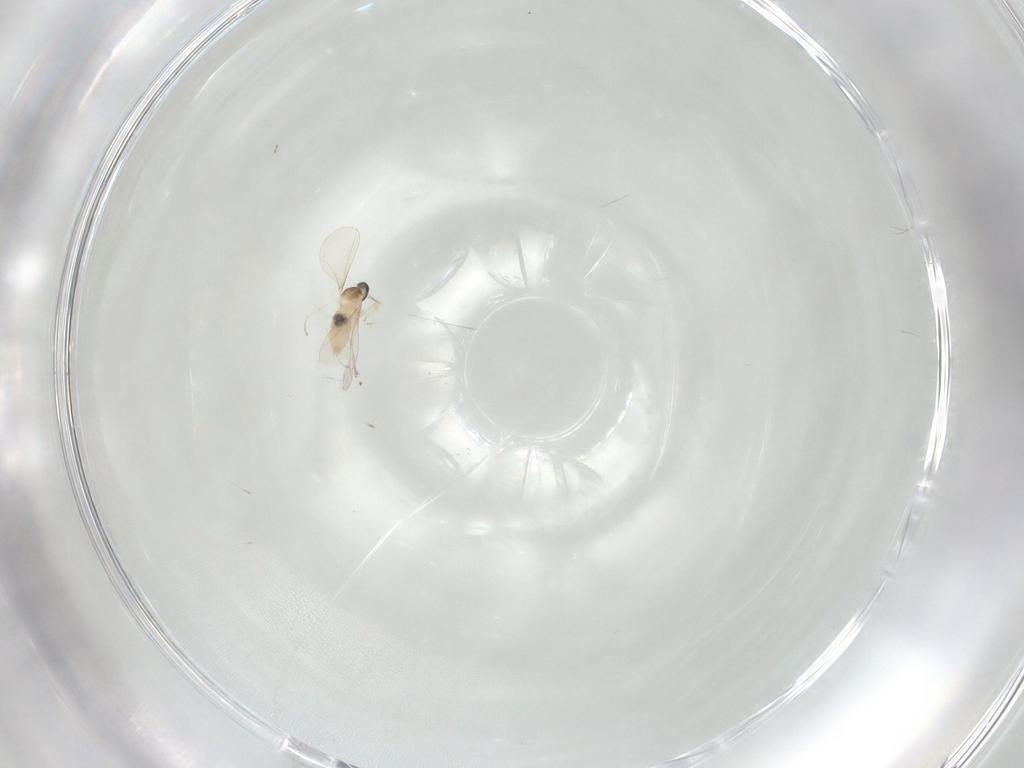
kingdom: Animalia
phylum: Arthropoda
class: Insecta
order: Diptera
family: Cecidomyiidae
